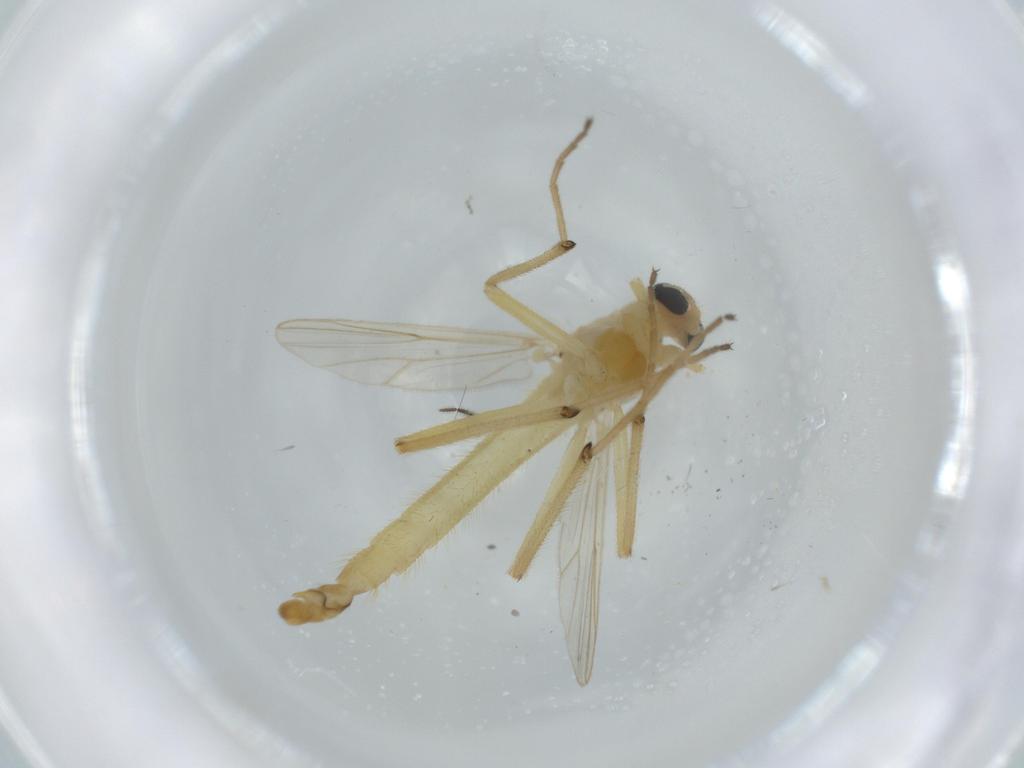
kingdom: Animalia
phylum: Arthropoda
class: Insecta
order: Diptera
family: Chironomidae
